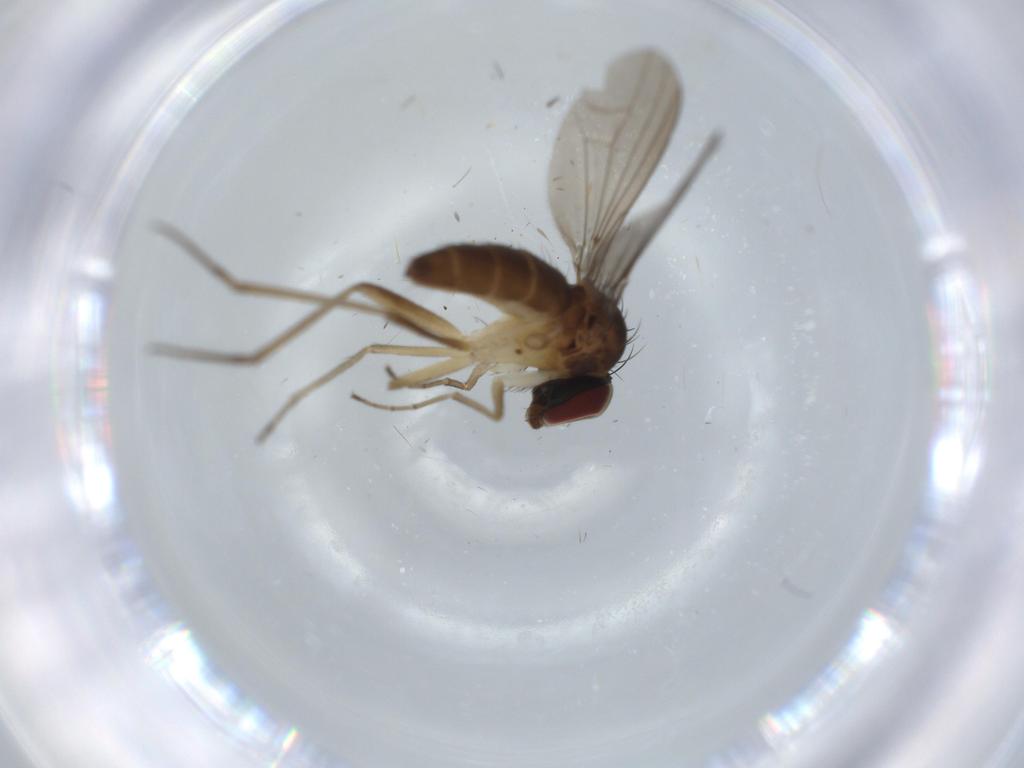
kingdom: Animalia
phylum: Arthropoda
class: Insecta
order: Diptera
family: Dolichopodidae
